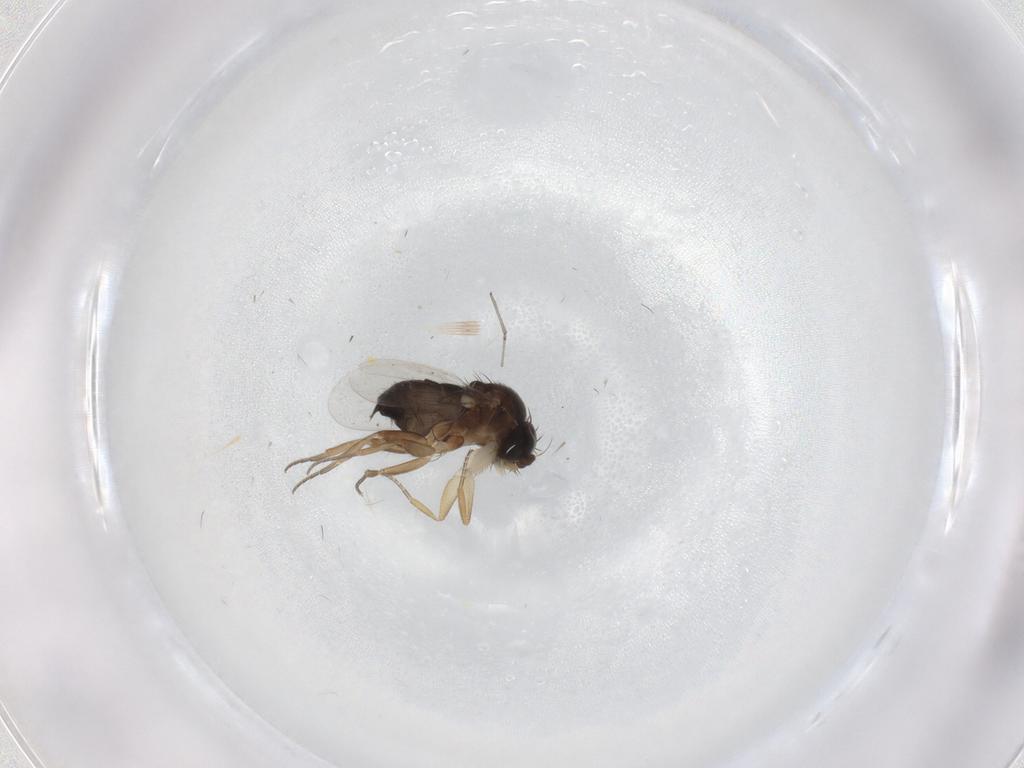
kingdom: Animalia
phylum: Arthropoda
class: Insecta
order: Diptera
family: Phoridae
